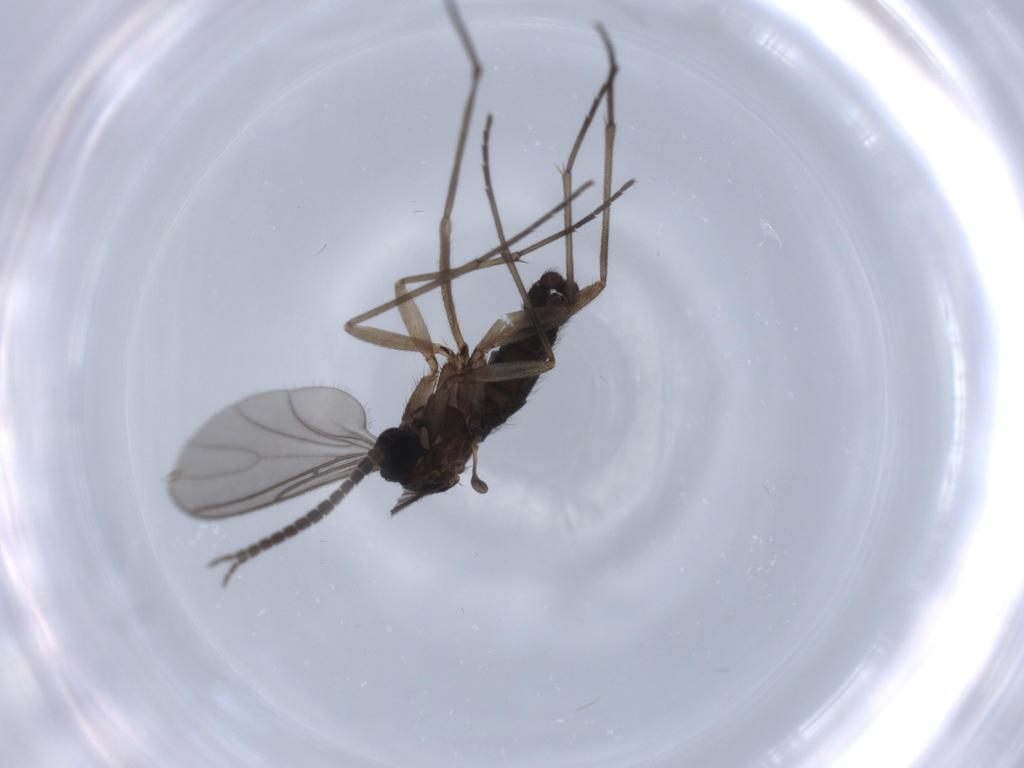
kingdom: Animalia
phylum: Arthropoda
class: Insecta
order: Diptera
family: Sciaridae
